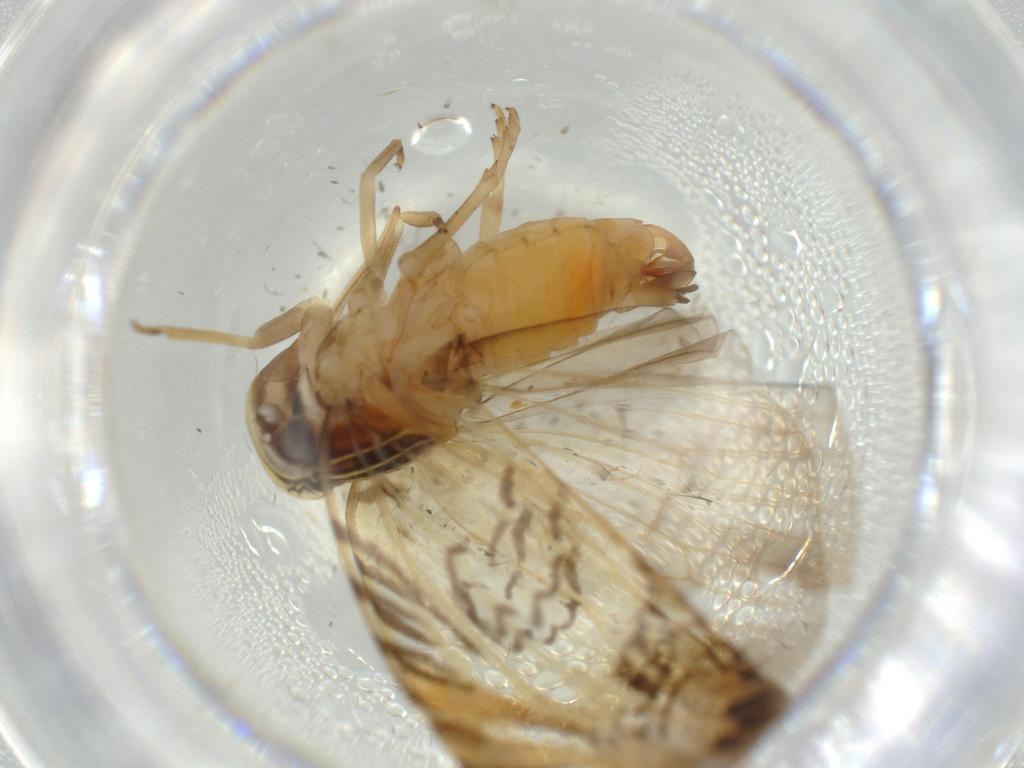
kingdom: Animalia
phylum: Arthropoda
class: Insecta
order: Hemiptera
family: Cixiidae
